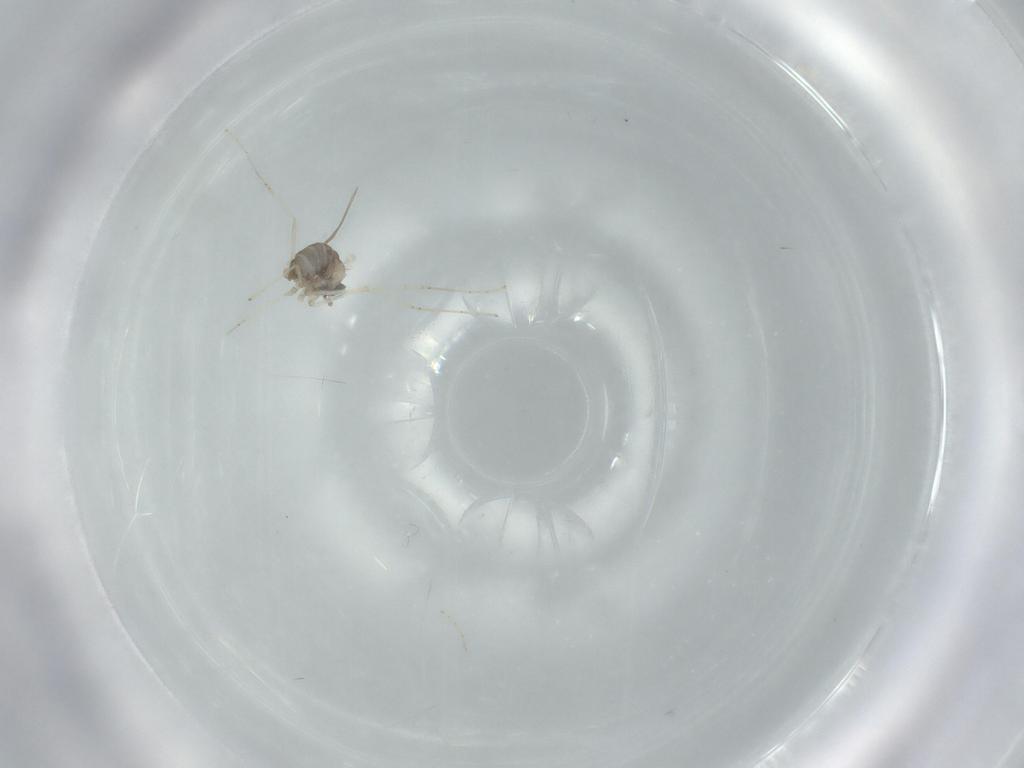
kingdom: Animalia
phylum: Arthropoda
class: Insecta
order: Diptera
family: Cecidomyiidae
